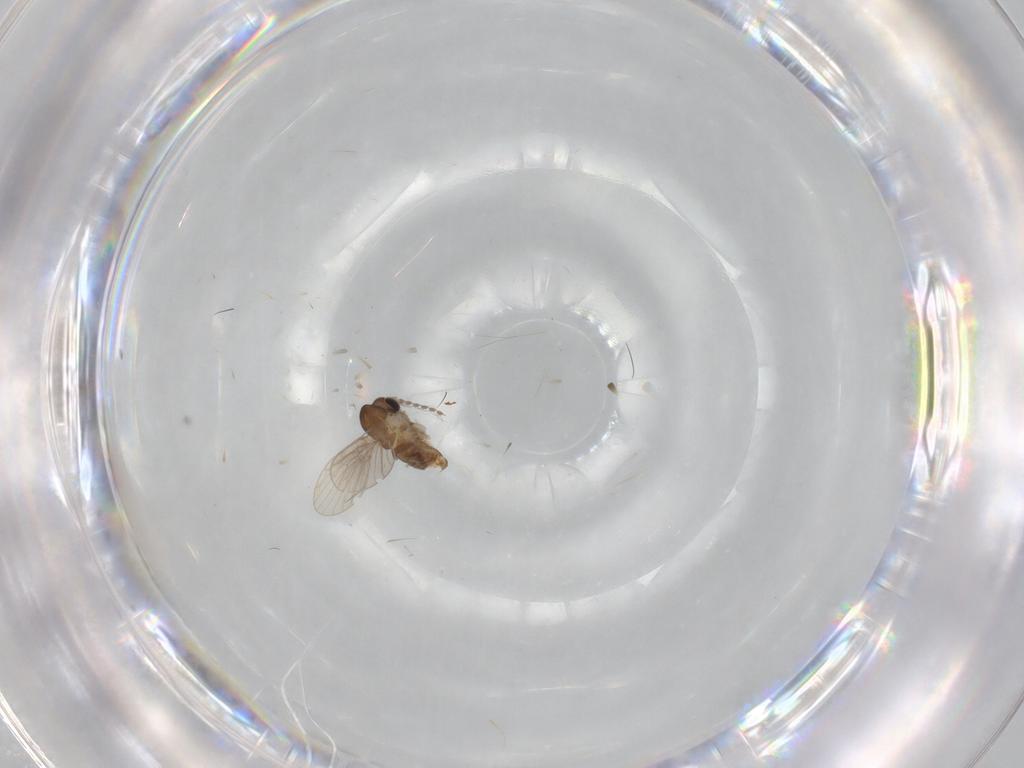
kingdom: Animalia
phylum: Arthropoda
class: Insecta
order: Diptera
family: Psychodidae
